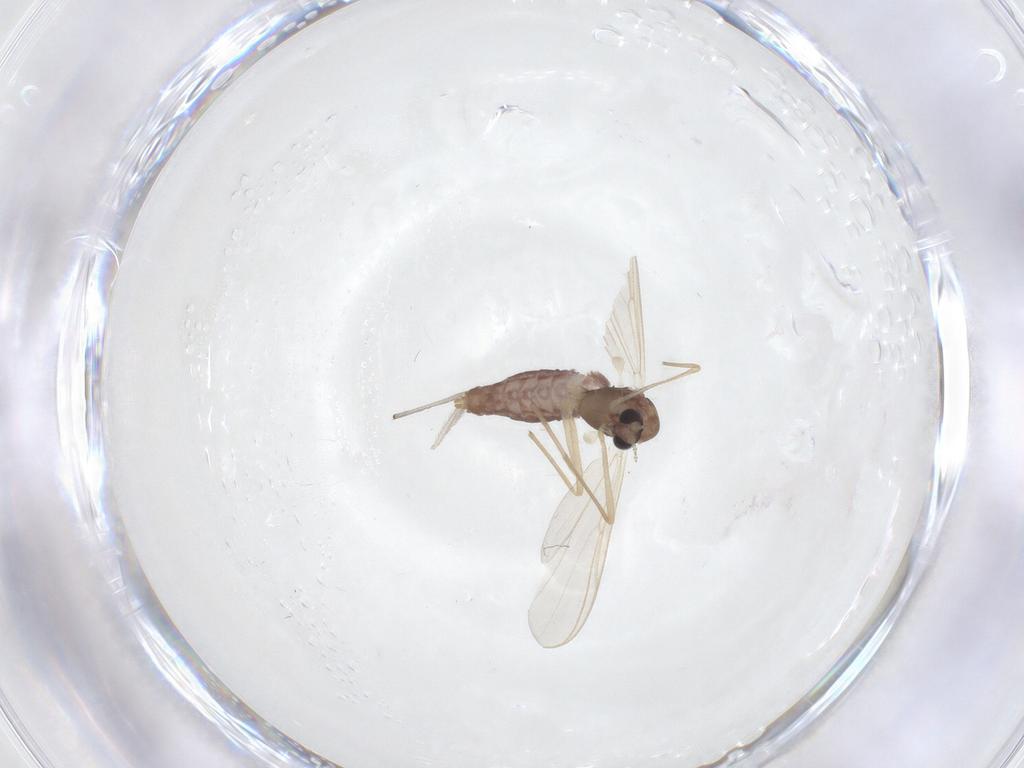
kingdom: Animalia
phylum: Arthropoda
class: Insecta
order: Diptera
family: Chironomidae
